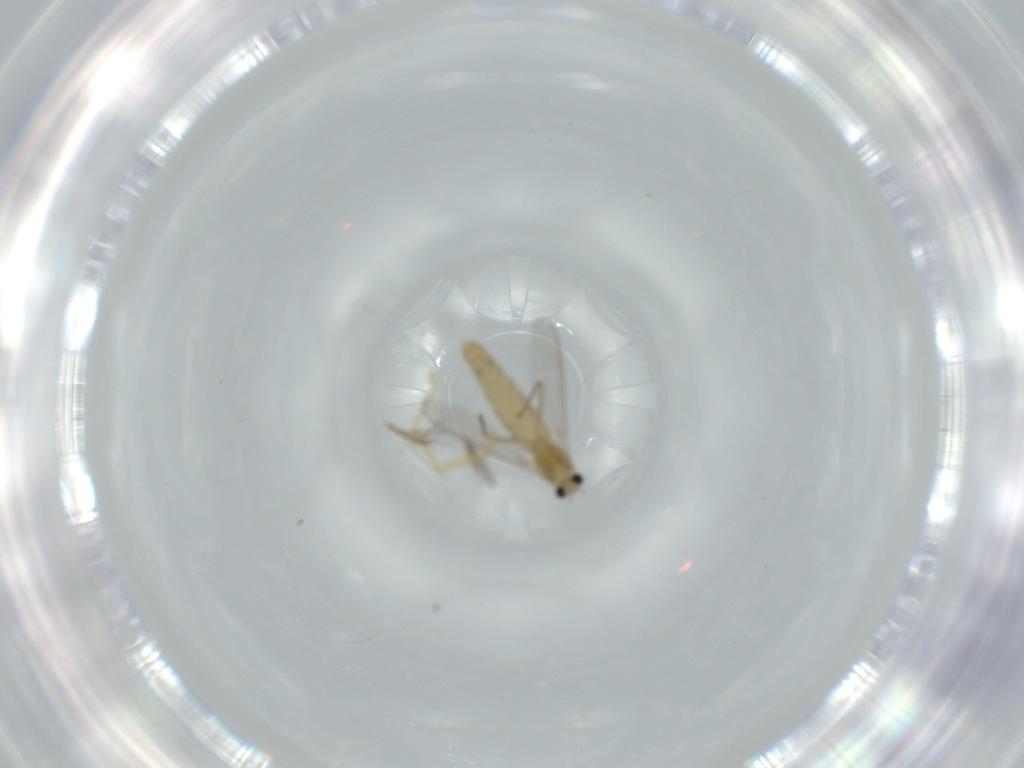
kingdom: Animalia
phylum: Arthropoda
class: Insecta
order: Diptera
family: Chironomidae
